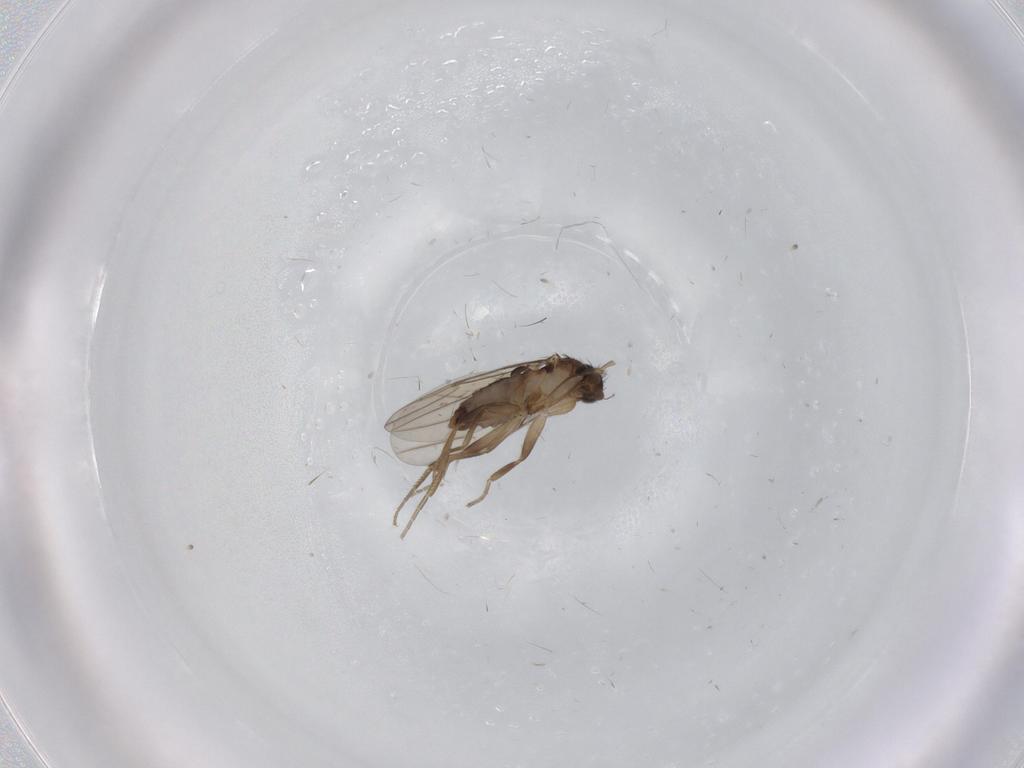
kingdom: Animalia
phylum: Arthropoda
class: Insecta
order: Diptera
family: Phoridae
